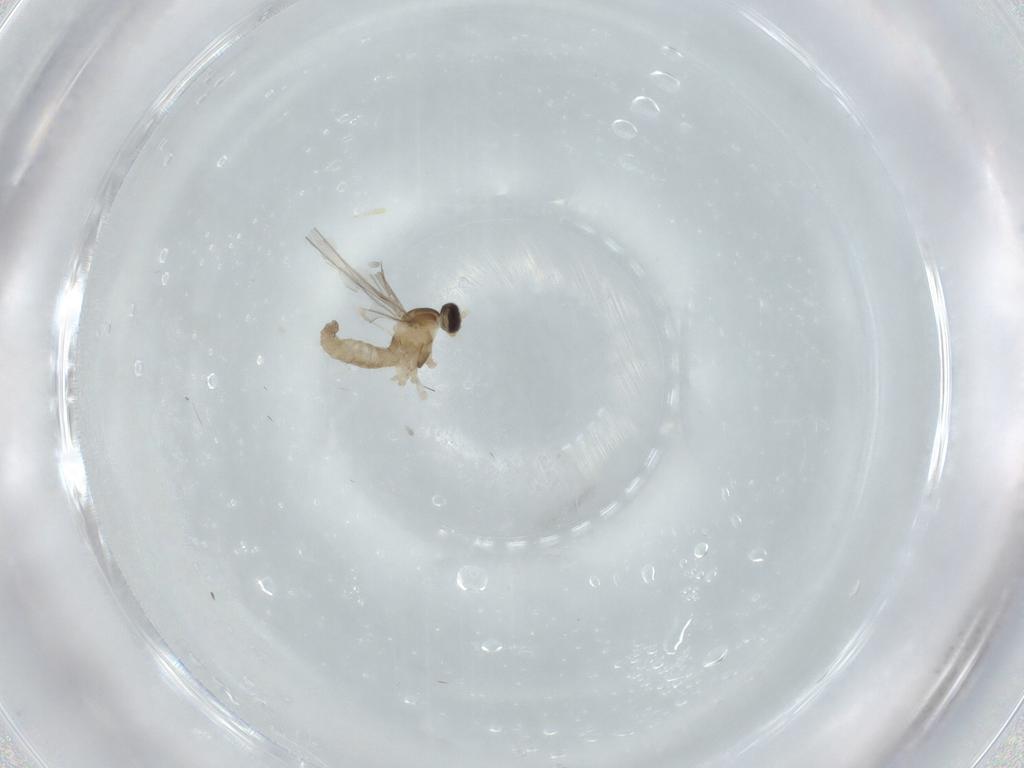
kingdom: Animalia
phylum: Arthropoda
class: Insecta
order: Diptera
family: Cecidomyiidae
